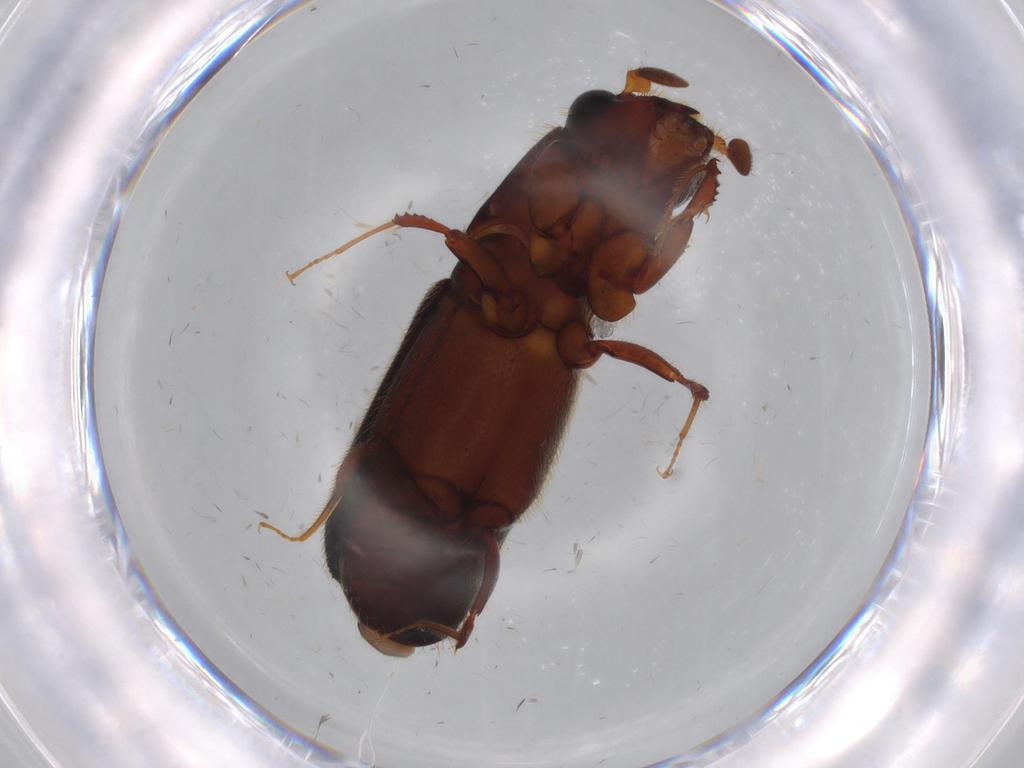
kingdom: Animalia
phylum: Arthropoda
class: Insecta
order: Coleoptera
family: Curculionidae
